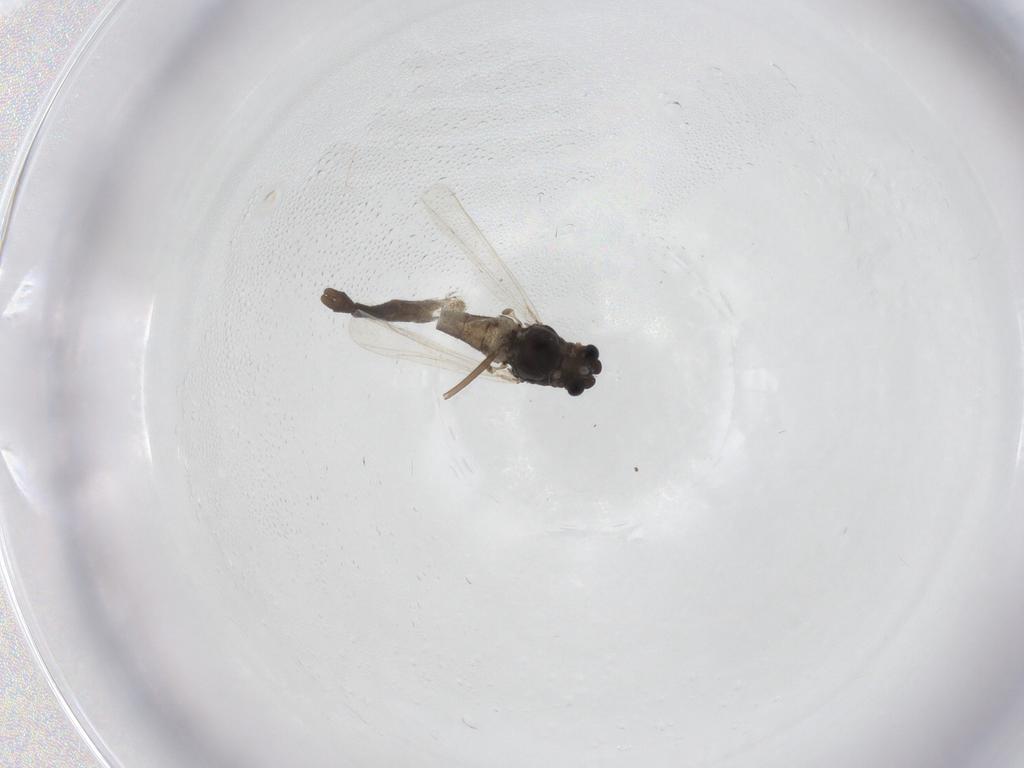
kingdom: Animalia
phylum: Arthropoda
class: Insecta
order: Diptera
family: Chironomidae
